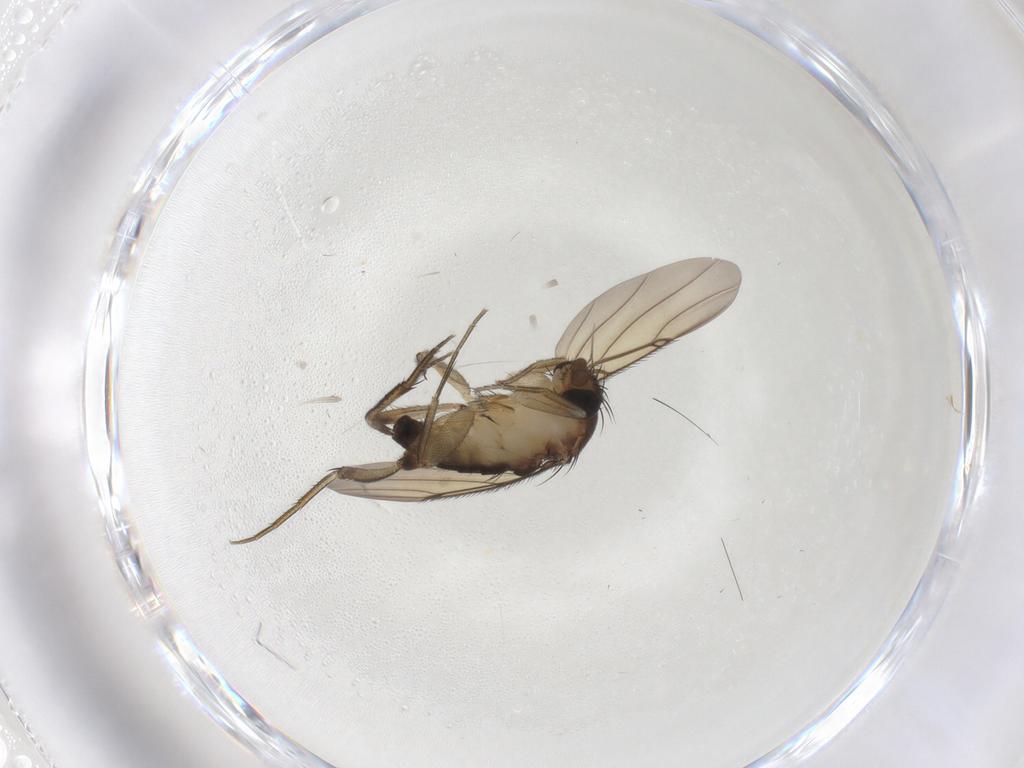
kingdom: Animalia
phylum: Arthropoda
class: Insecta
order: Diptera
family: Phoridae
